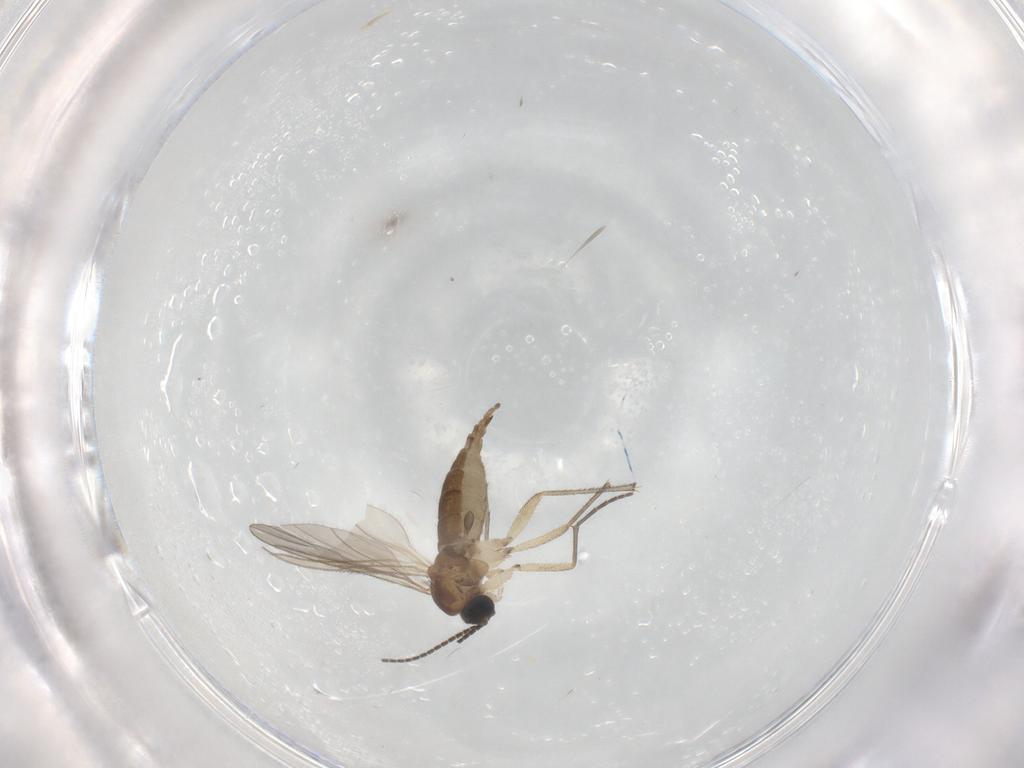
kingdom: Animalia
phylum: Arthropoda
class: Insecta
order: Diptera
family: Sciaridae
